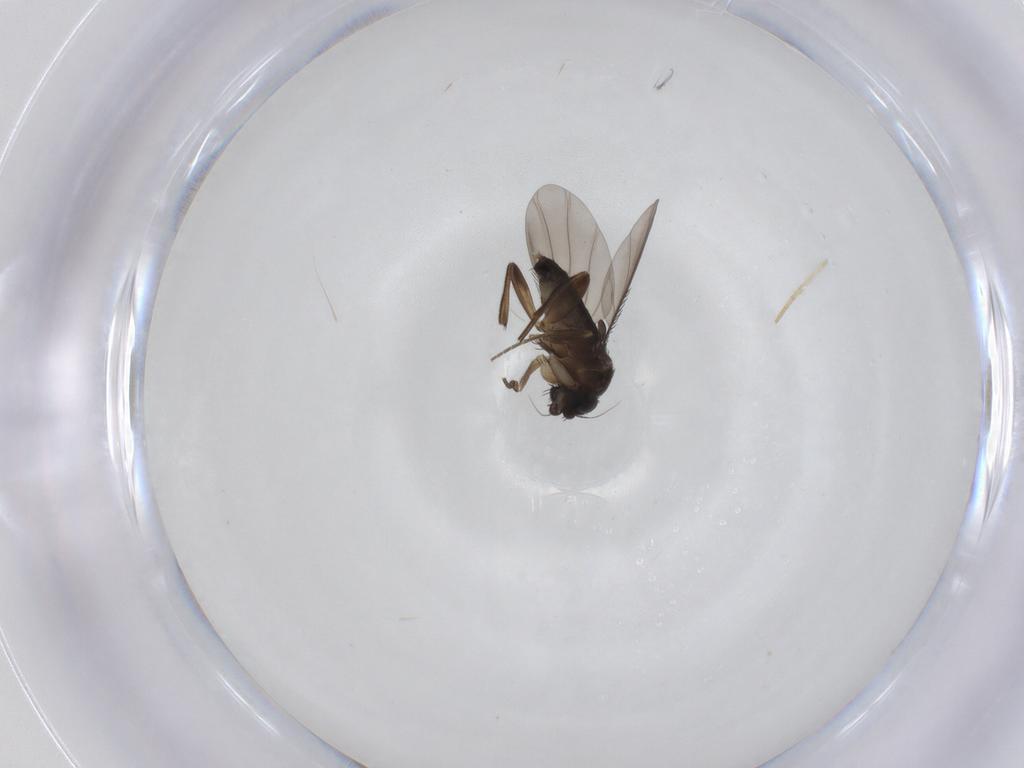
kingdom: Animalia
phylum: Arthropoda
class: Insecta
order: Diptera
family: Phoridae
